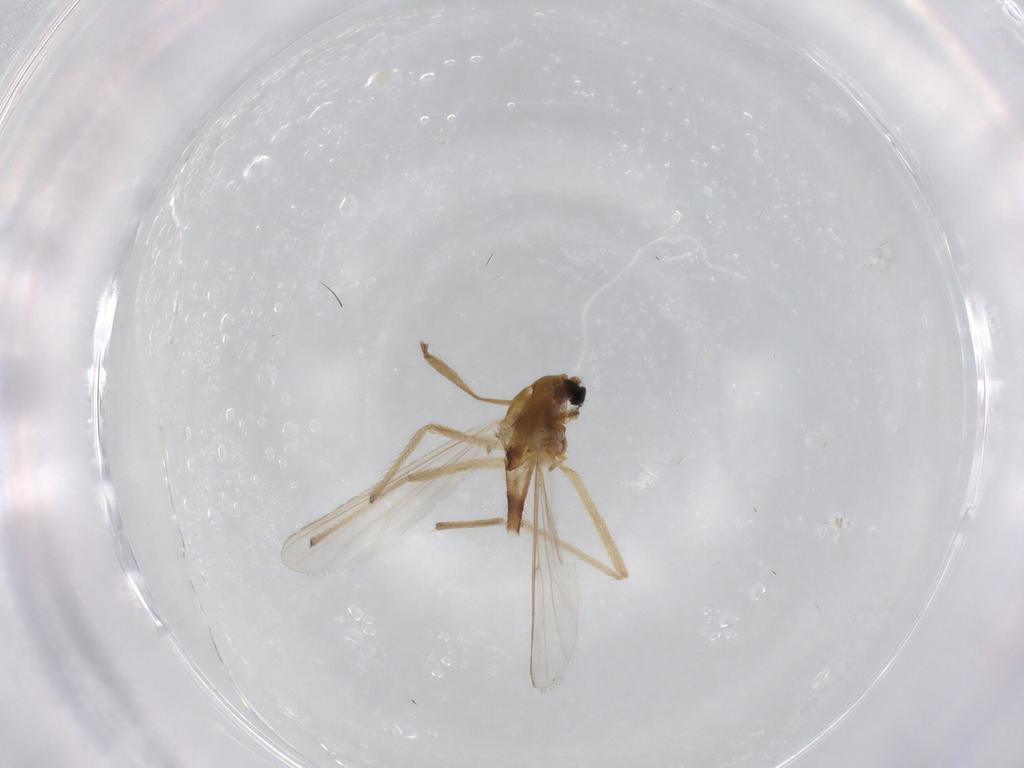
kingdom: Animalia
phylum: Arthropoda
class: Insecta
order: Diptera
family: Chironomidae
